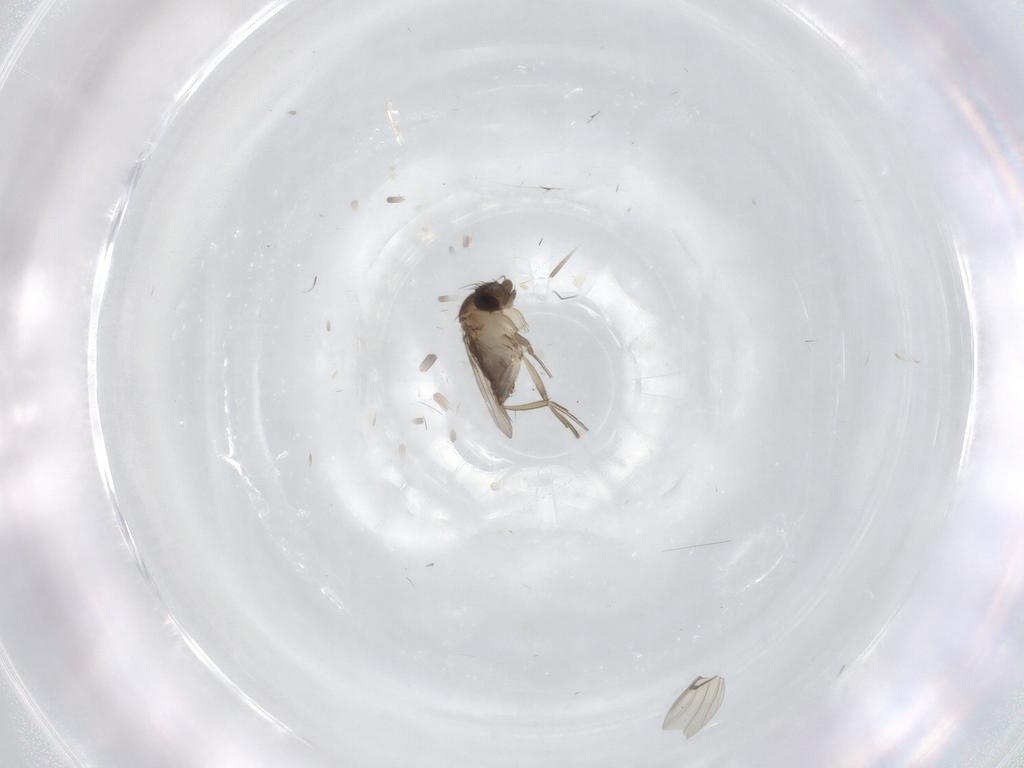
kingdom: Animalia
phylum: Arthropoda
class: Insecta
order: Diptera
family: Phoridae
